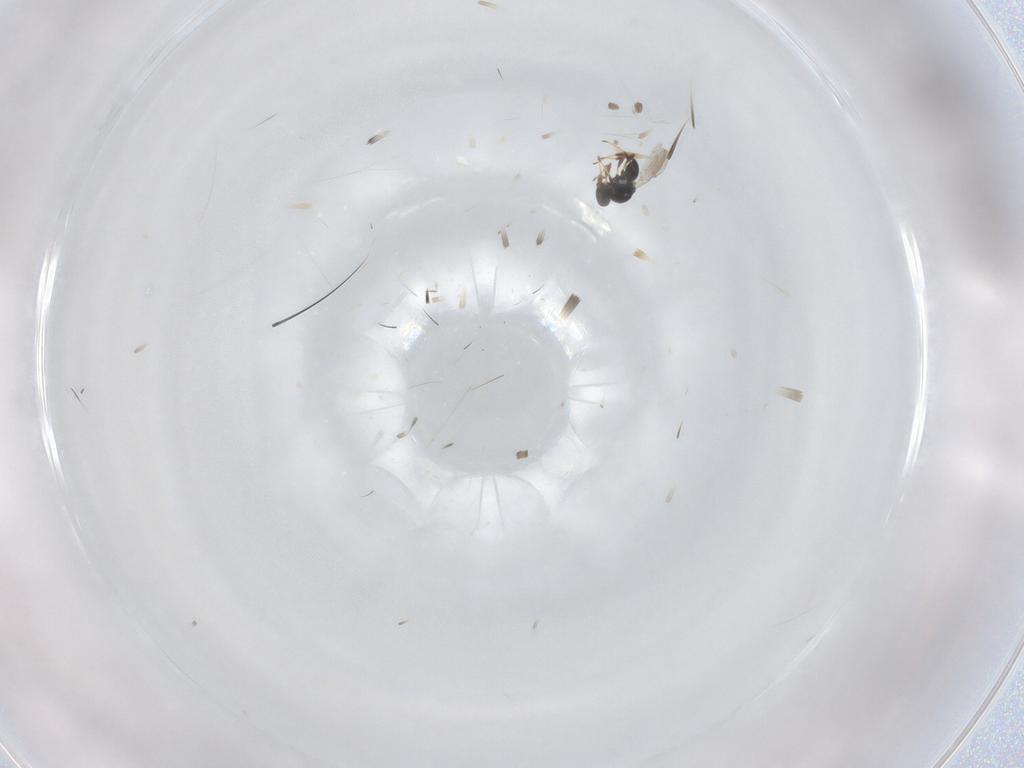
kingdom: Animalia
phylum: Arthropoda
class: Insecta
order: Hymenoptera
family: Platygastridae
